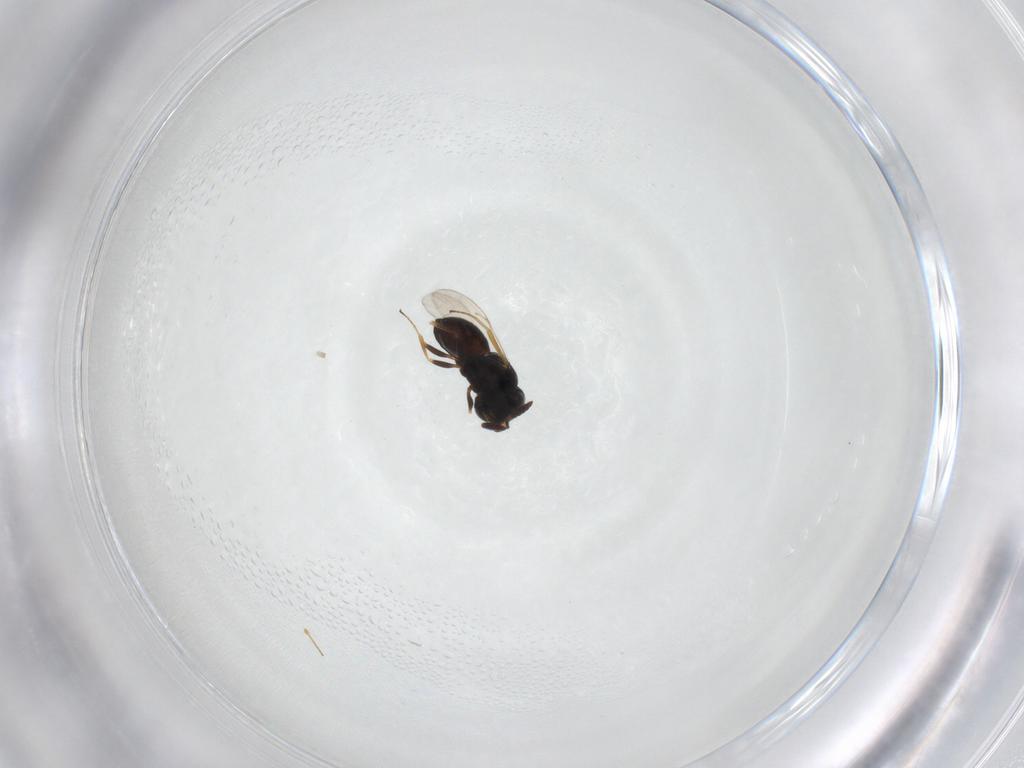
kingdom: Animalia
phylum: Arthropoda
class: Insecta
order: Hymenoptera
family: Scelionidae
